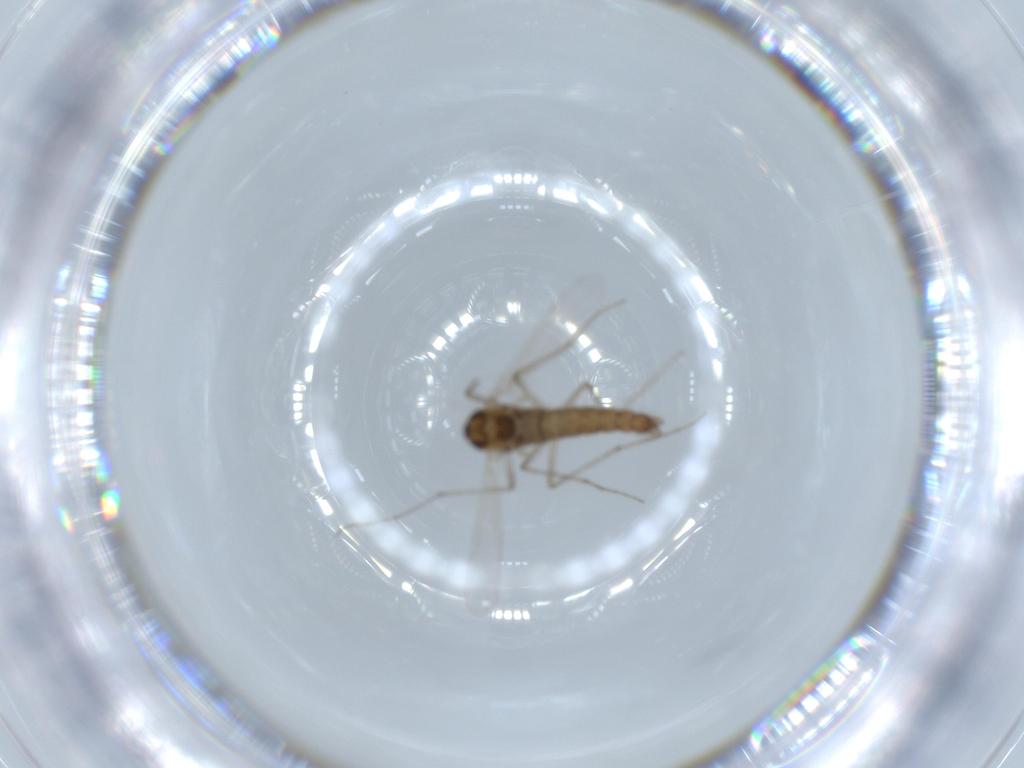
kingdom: Animalia
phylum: Arthropoda
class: Insecta
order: Diptera
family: Chironomidae
